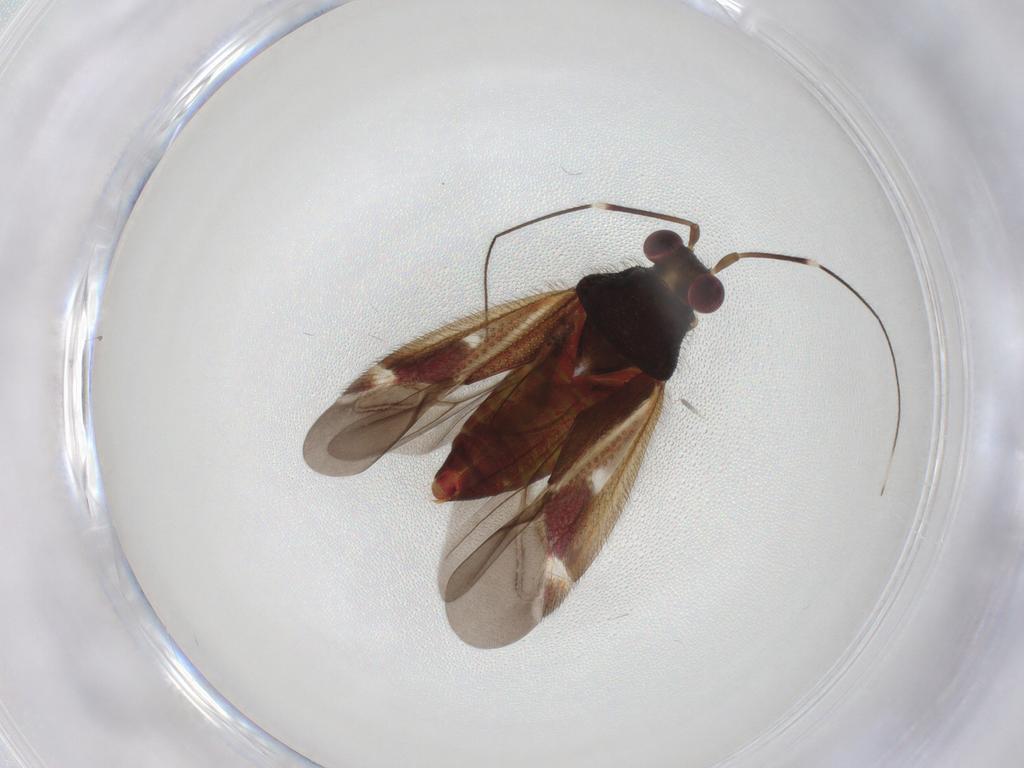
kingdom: Animalia
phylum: Arthropoda
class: Insecta
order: Hemiptera
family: Miridae
